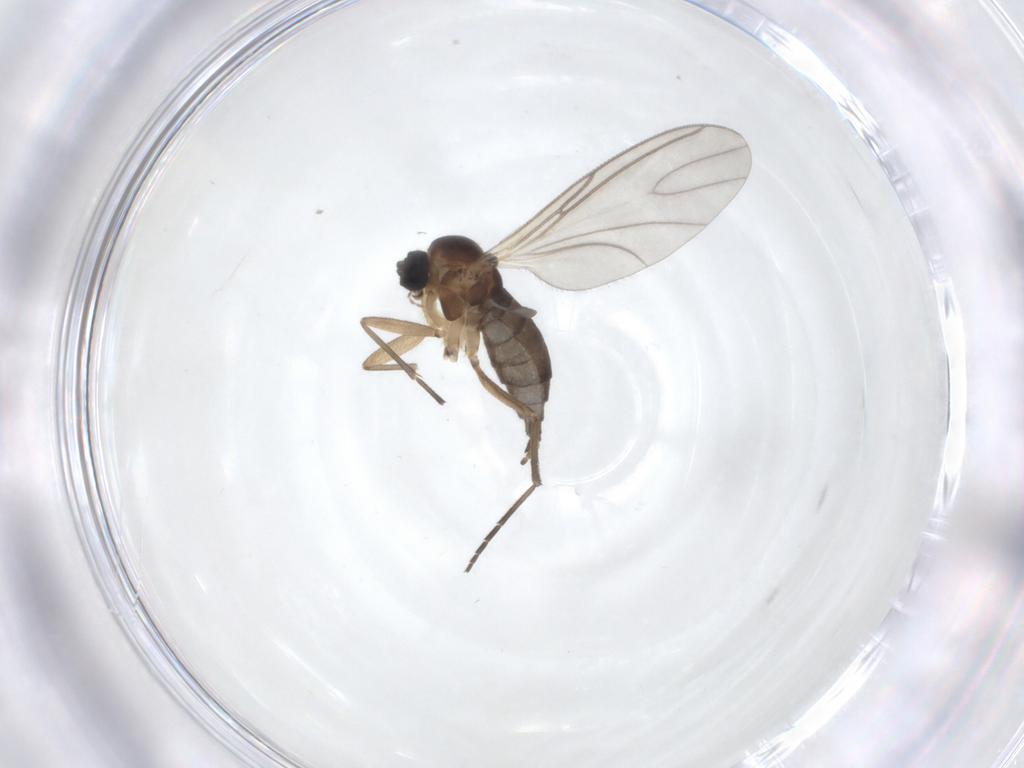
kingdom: Animalia
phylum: Arthropoda
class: Insecta
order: Diptera
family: Sciaridae
